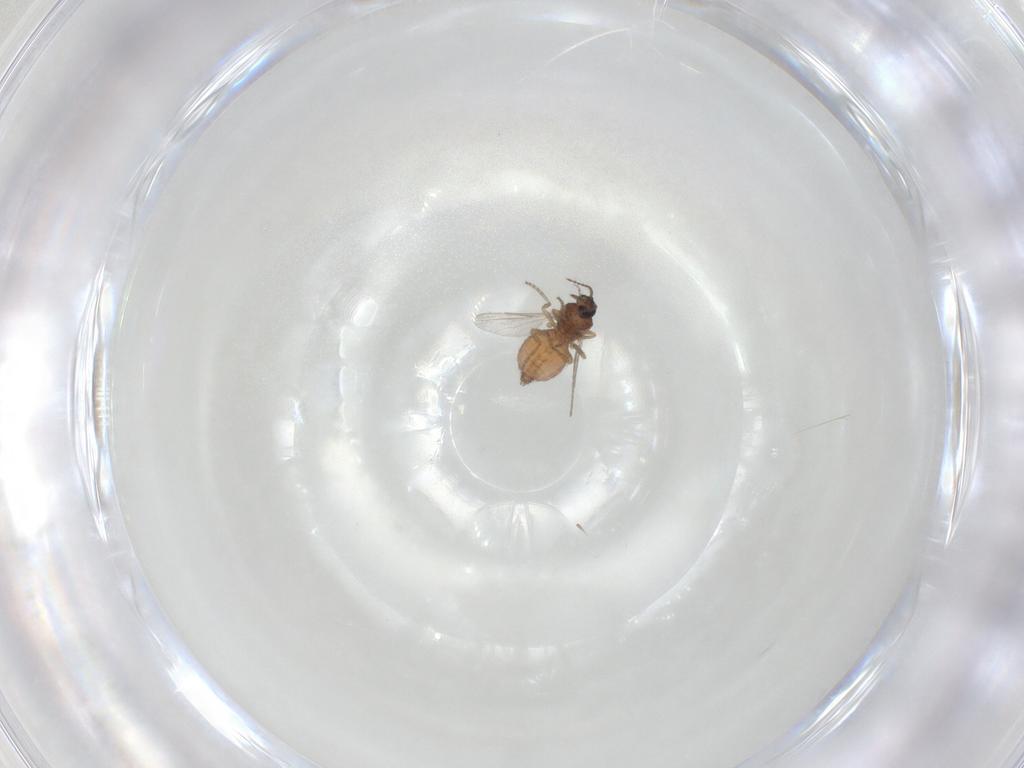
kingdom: Animalia
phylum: Arthropoda
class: Insecta
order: Diptera
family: Ceratopogonidae
